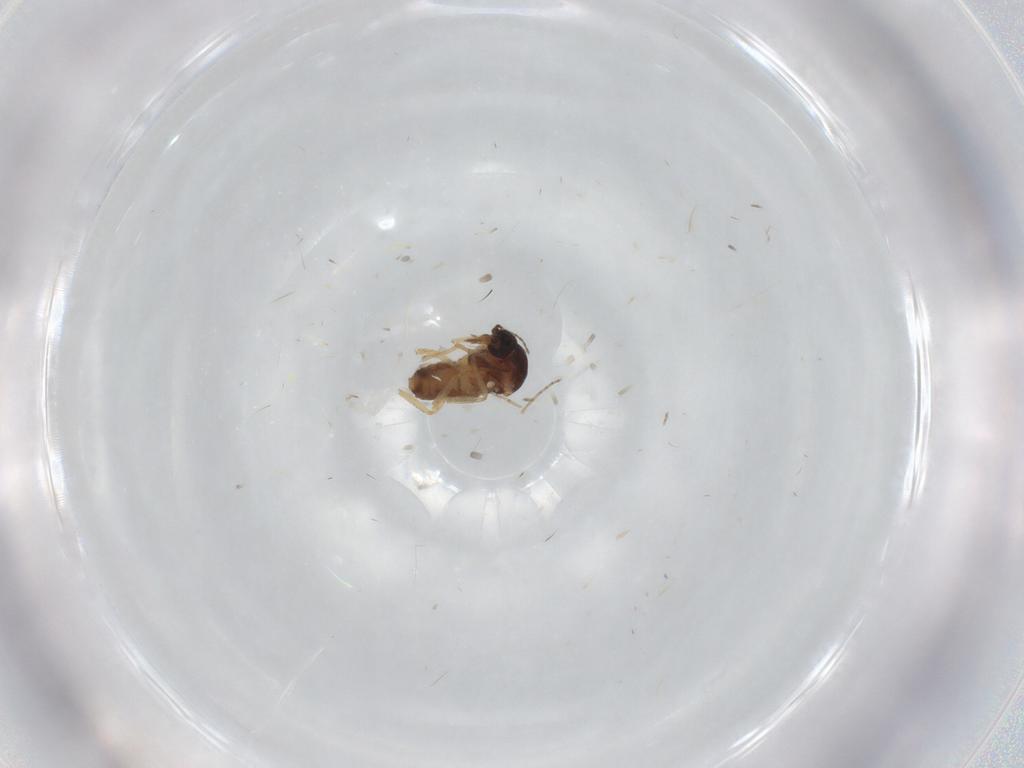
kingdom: Animalia
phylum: Arthropoda
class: Insecta
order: Diptera
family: Ceratopogonidae
